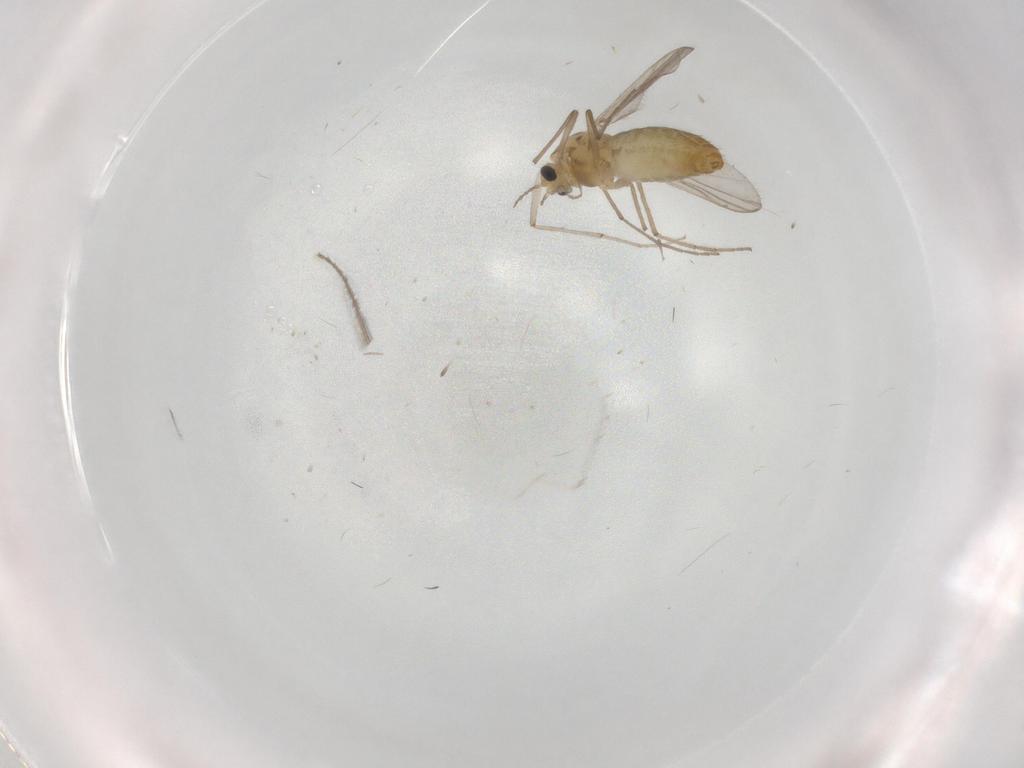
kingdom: Animalia
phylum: Arthropoda
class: Insecta
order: Diptera
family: Chironomidae
